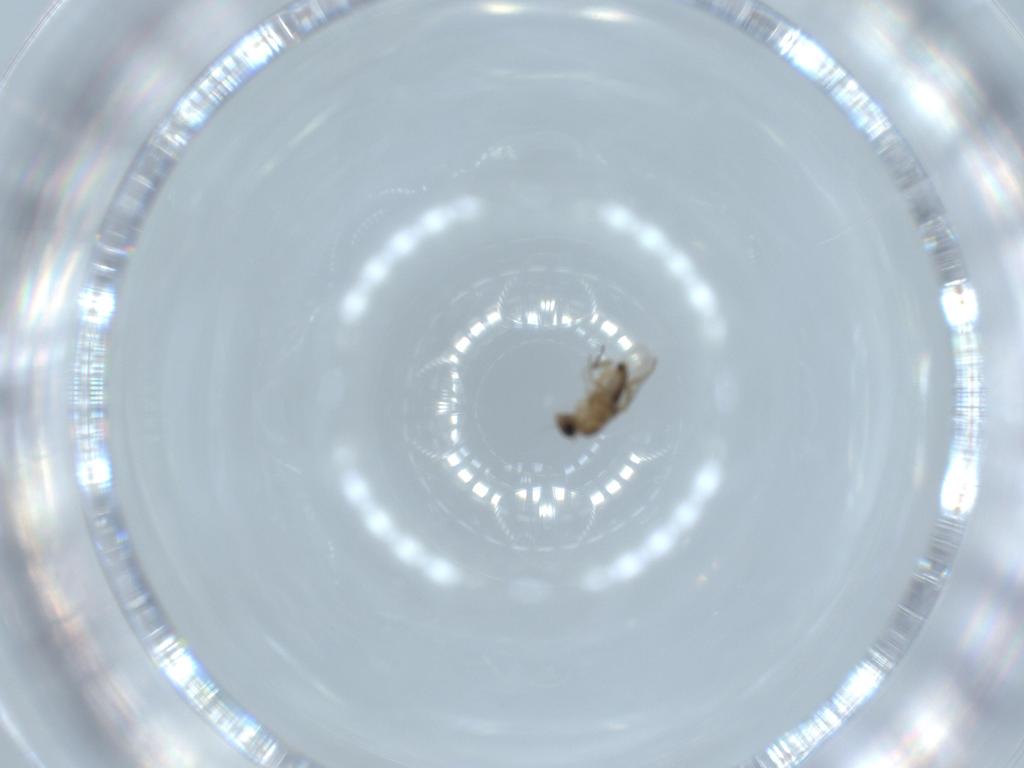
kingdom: Animalia
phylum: Arthropoda
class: Insecta
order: Diptera
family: Phoridae
